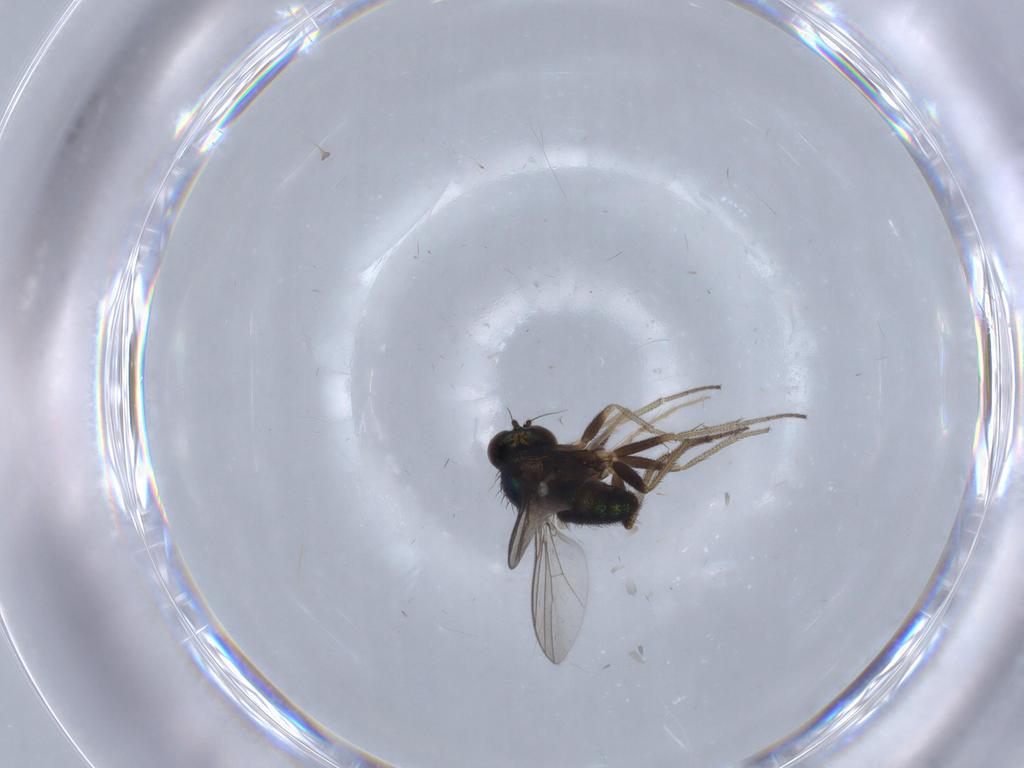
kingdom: Animalia
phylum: Arthropoda
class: Insecta
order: Diptera
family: Dolichopodidae
